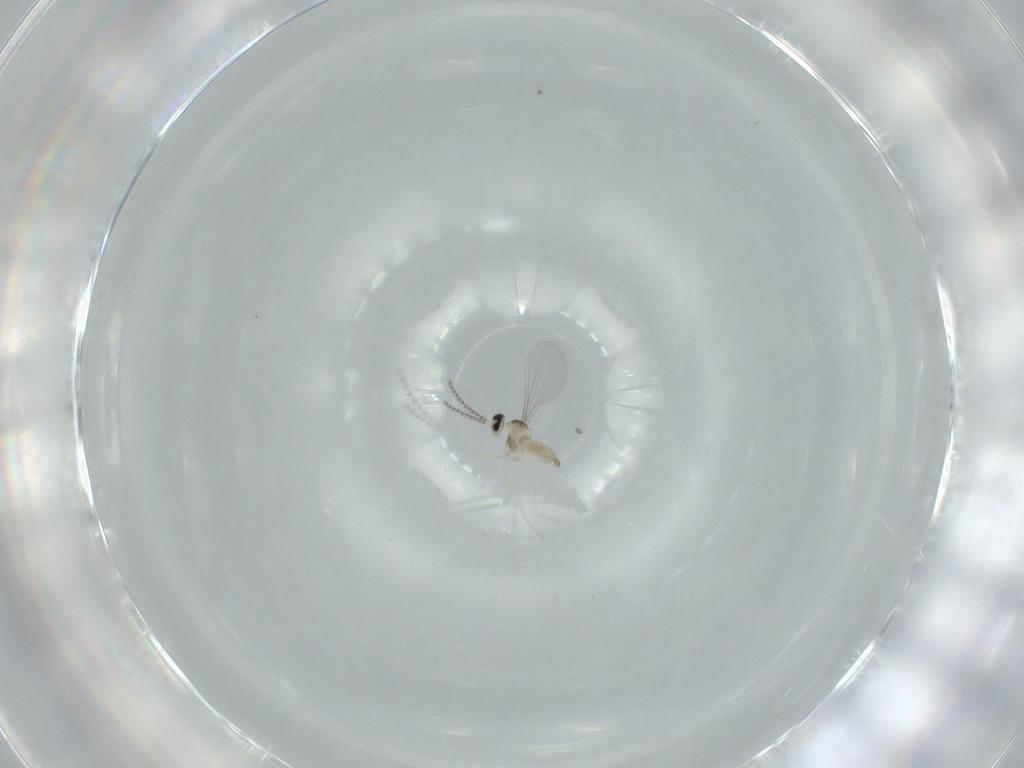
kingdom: Animalia
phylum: Arthropoda
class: Insecta
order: Diptera
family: Cecidomyiidae
